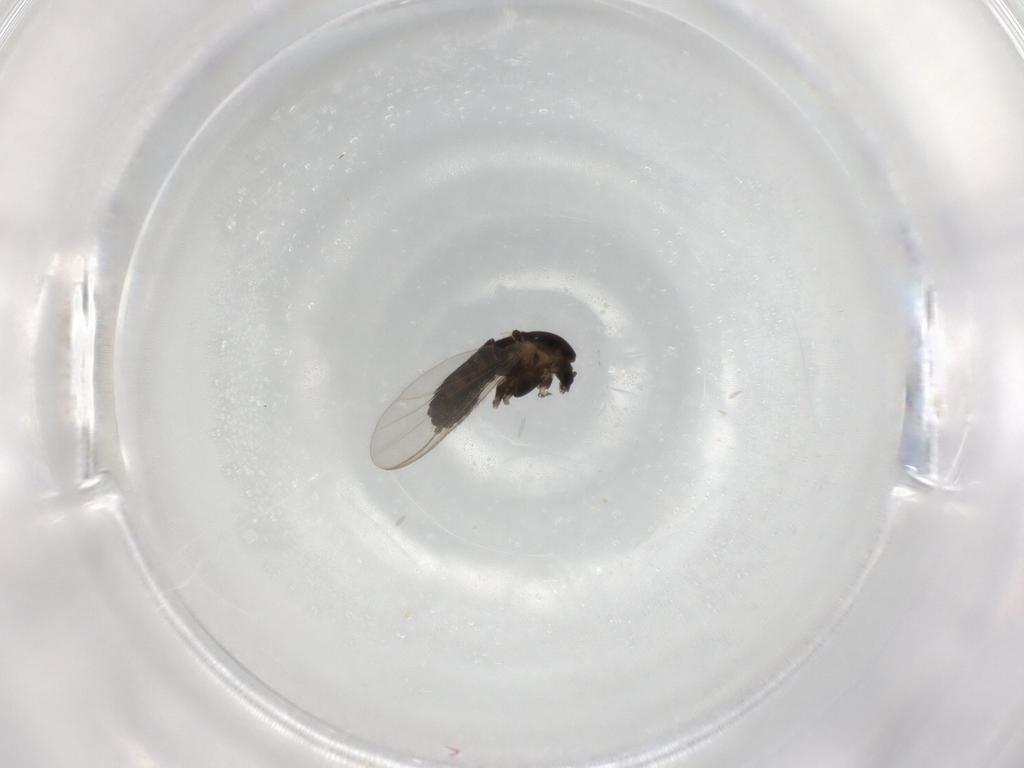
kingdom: Animalia
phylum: Arthropoda
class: Insecta
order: Diptera
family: Chironomidae
